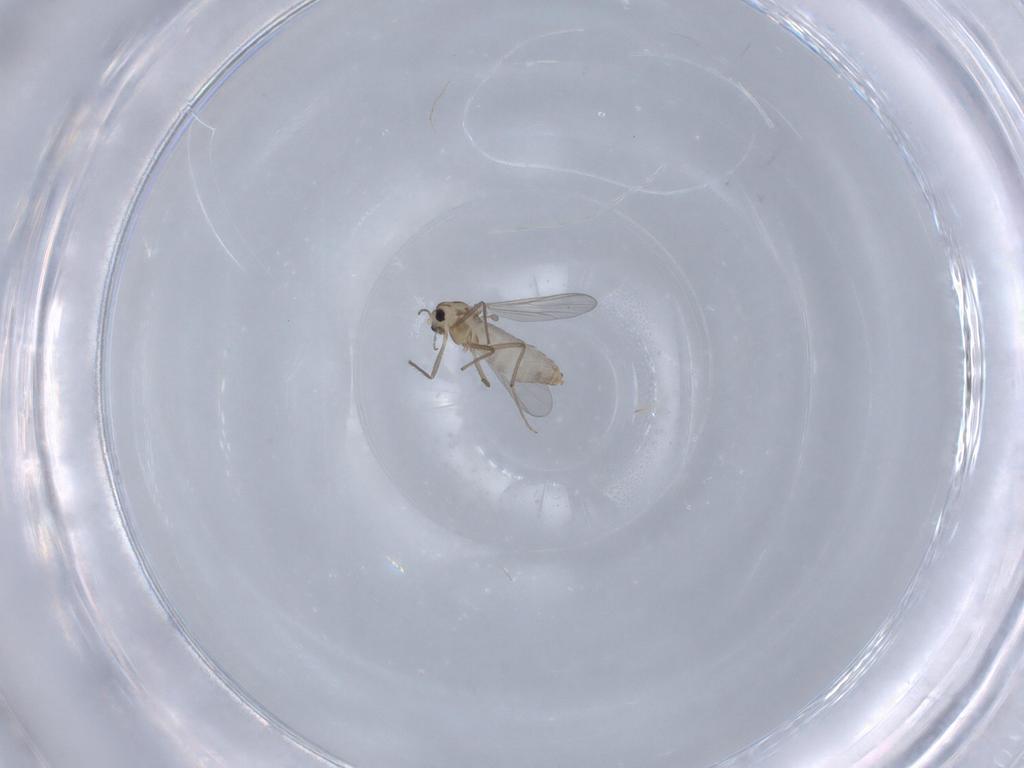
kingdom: Animalia
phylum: Arthropoda
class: Insecta
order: Diptera
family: Chironomidae
